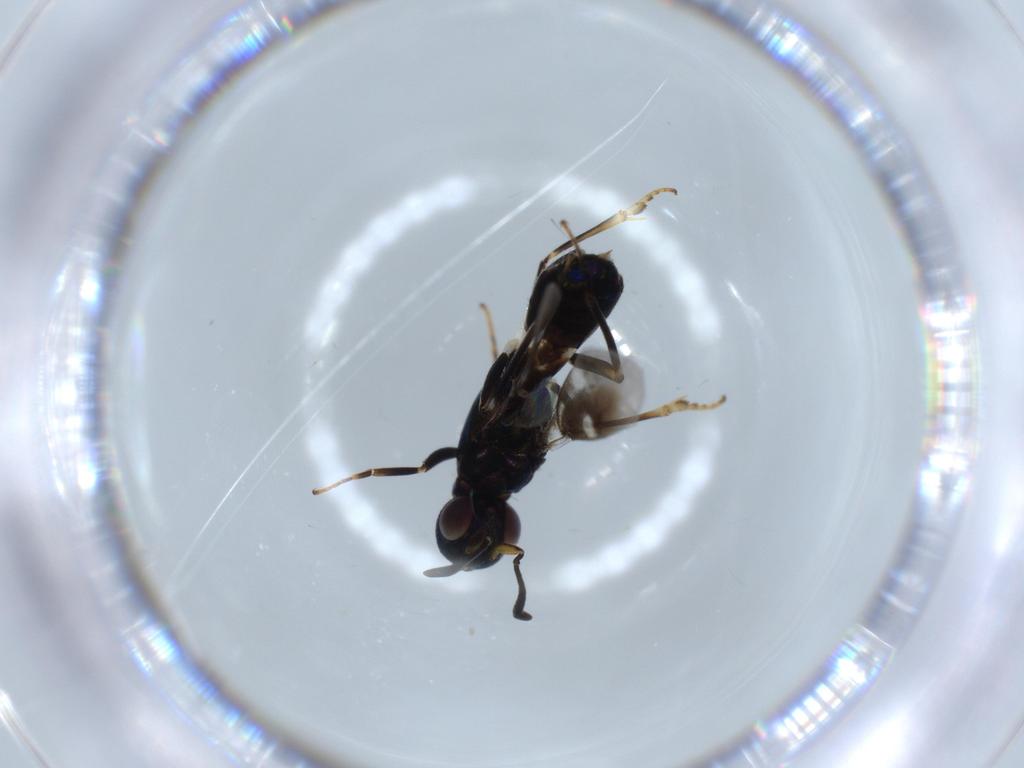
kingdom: Animalia
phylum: Arthropoda
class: Insecta
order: Hymenoptera
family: Eupelmidae
